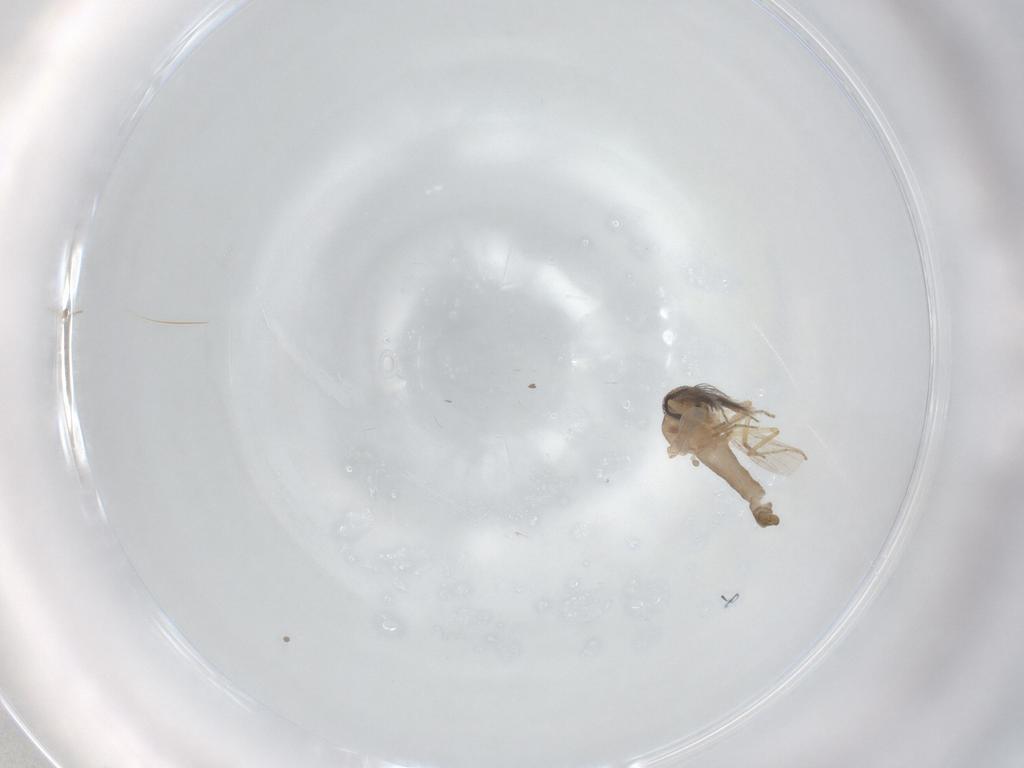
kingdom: Animalia
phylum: Arthropoda
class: Insecta
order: Diptera
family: Ceratopogonidae
